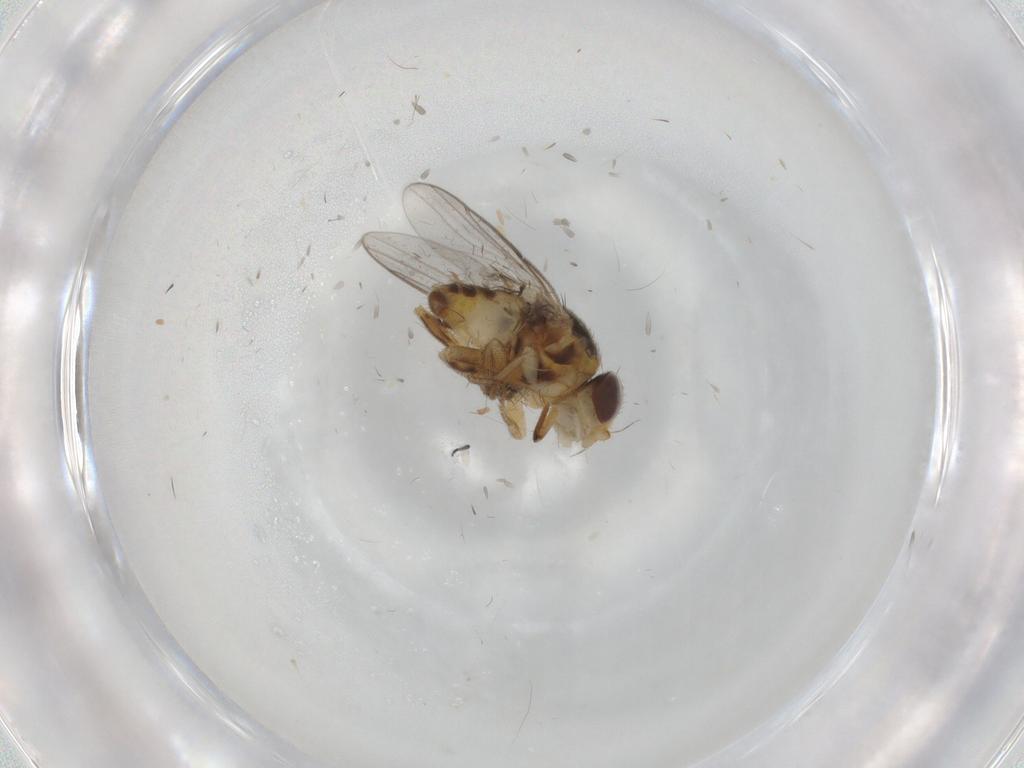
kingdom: Animalia
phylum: Arthropoda
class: Insecta
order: Diptera
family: Chloropidae
